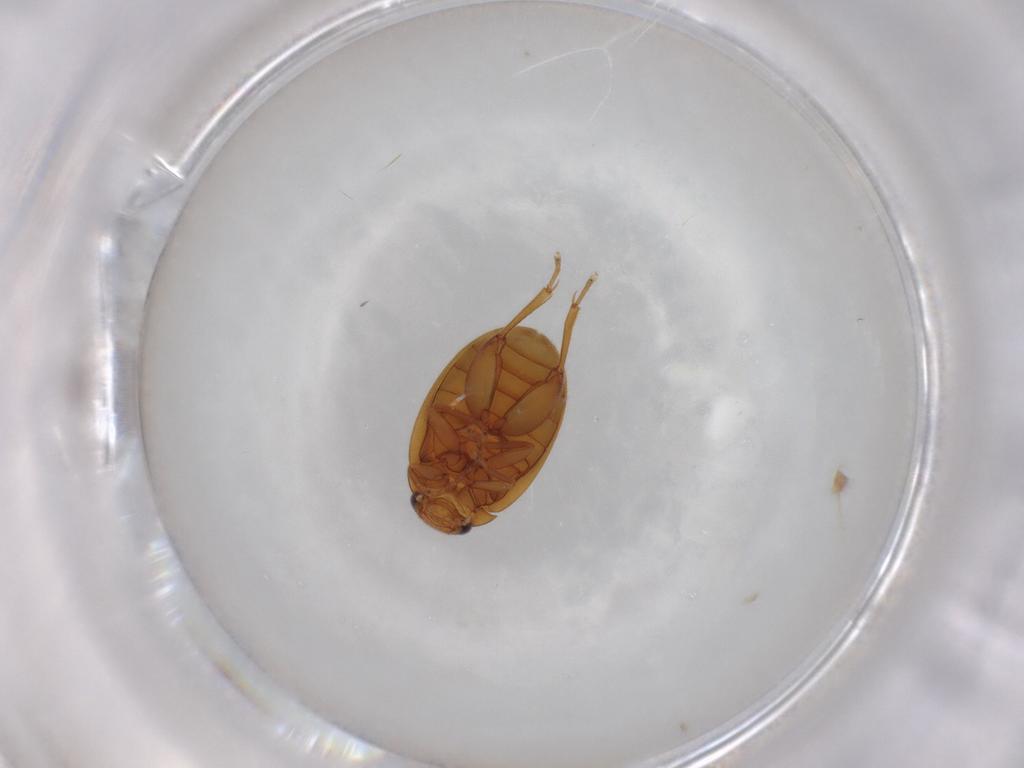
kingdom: Animalia
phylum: Arthropoda
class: Insecta
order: Coleoptera
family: Scirtidae
